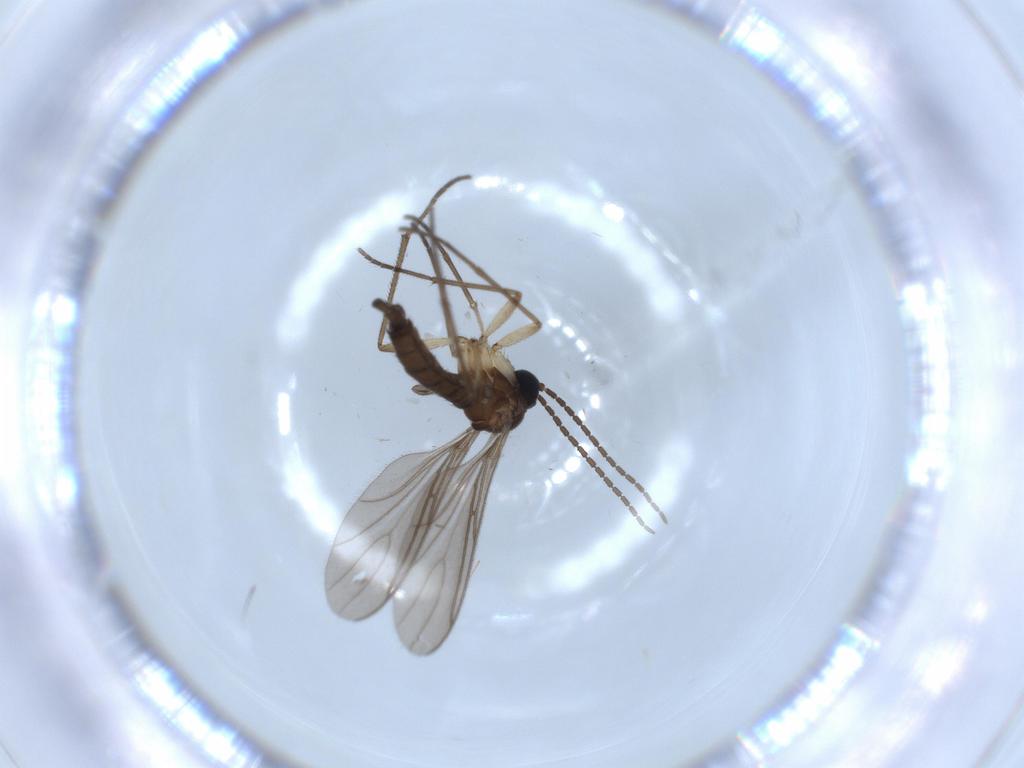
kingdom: Animalia
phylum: Arthropoda
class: Insecta
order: Diptera
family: Sciaridae
